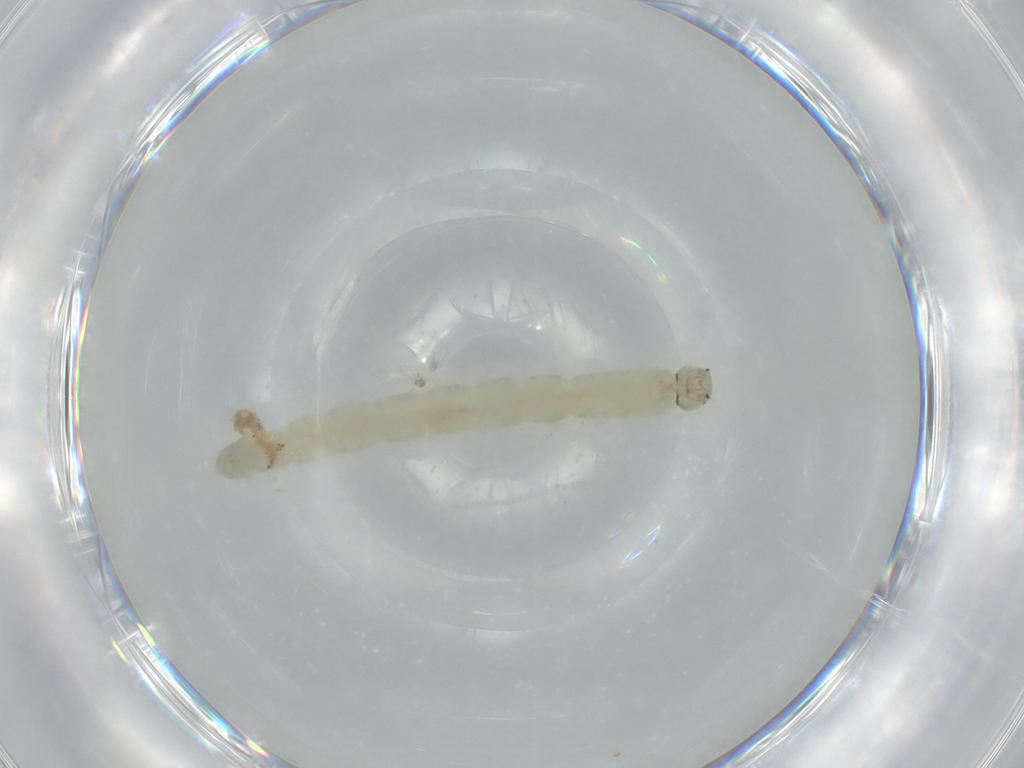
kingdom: Animalia
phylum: Arthropoda
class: Insecta
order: Diptera
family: Chironomidae
